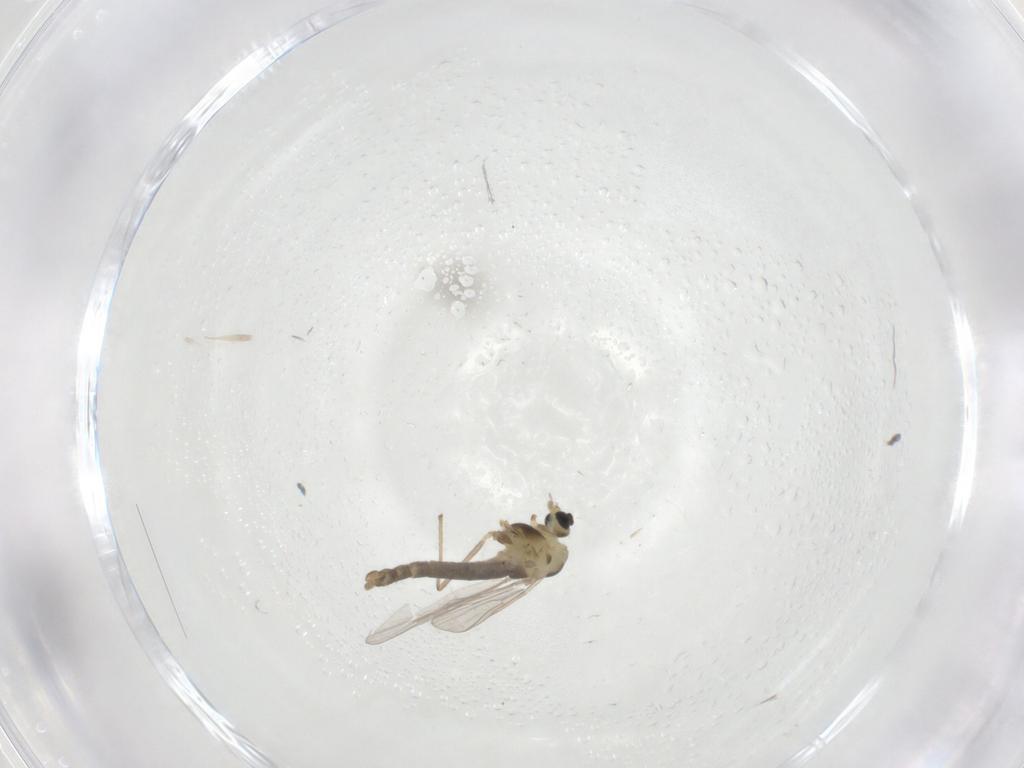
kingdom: Animalia
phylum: Arthropoda
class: Insecta
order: Diptera
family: Chironomidae
